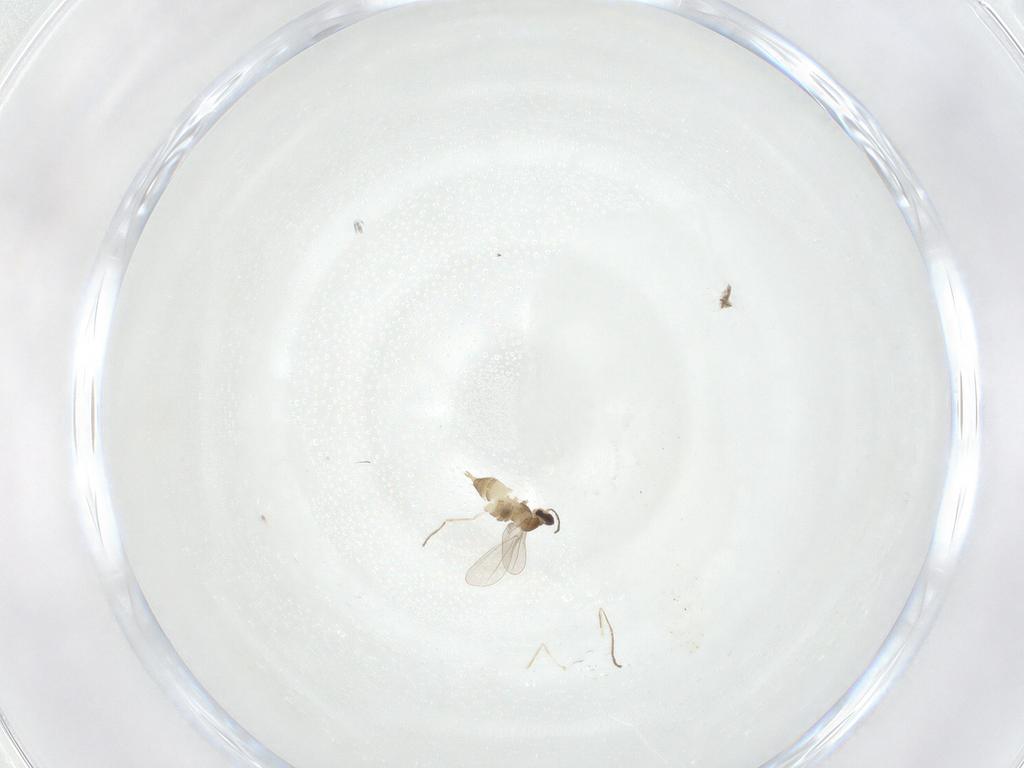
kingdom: Animalia
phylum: Arthropoda
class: Insecta
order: Diptera
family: Cecidomyiidae
